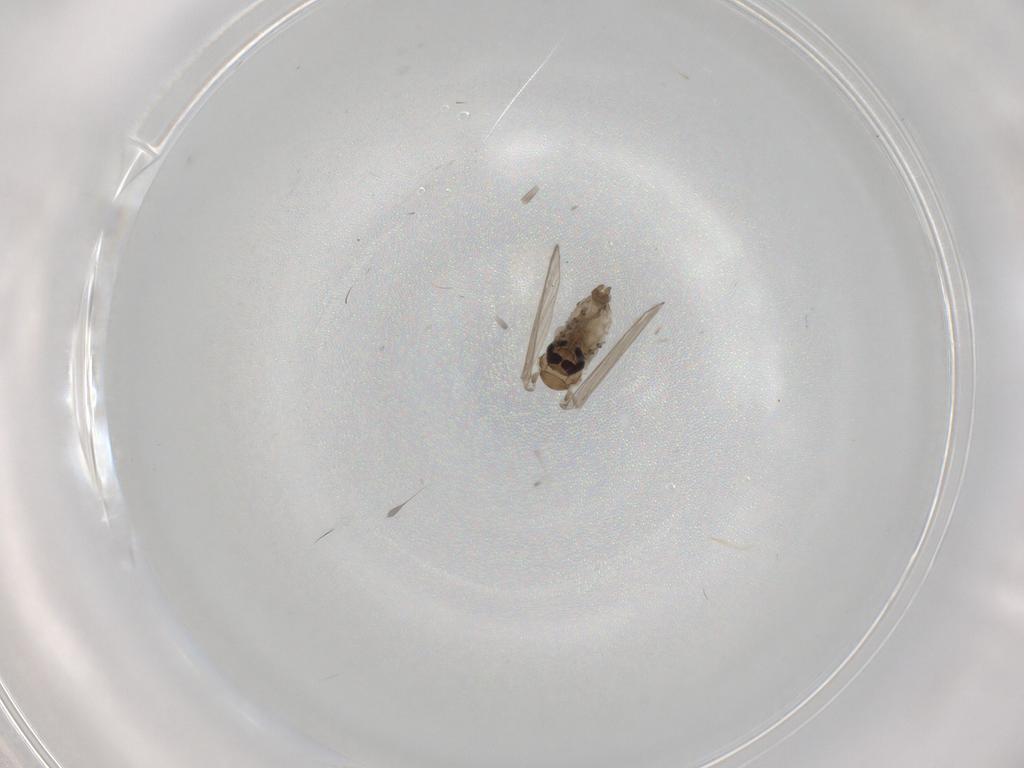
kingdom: Animalia
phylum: Arthropoda
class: Insecta
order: Diptera
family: Psychodidae
